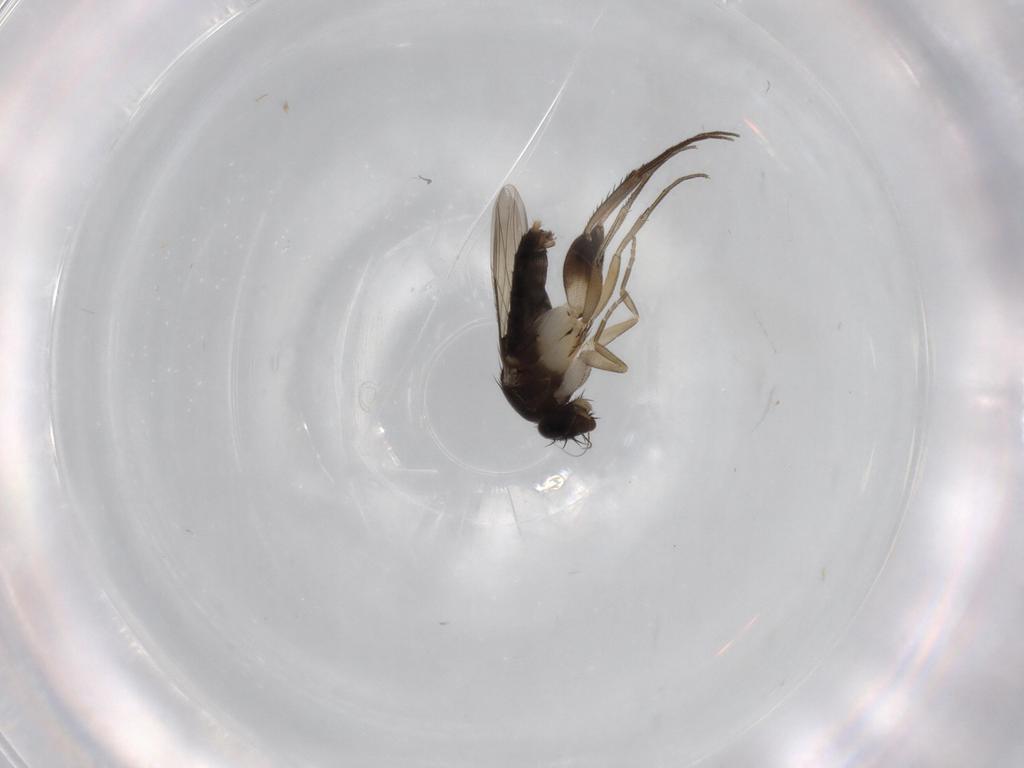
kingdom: Animalia
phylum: Arthropoda
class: Insecta
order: Diptera
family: Phoridae
